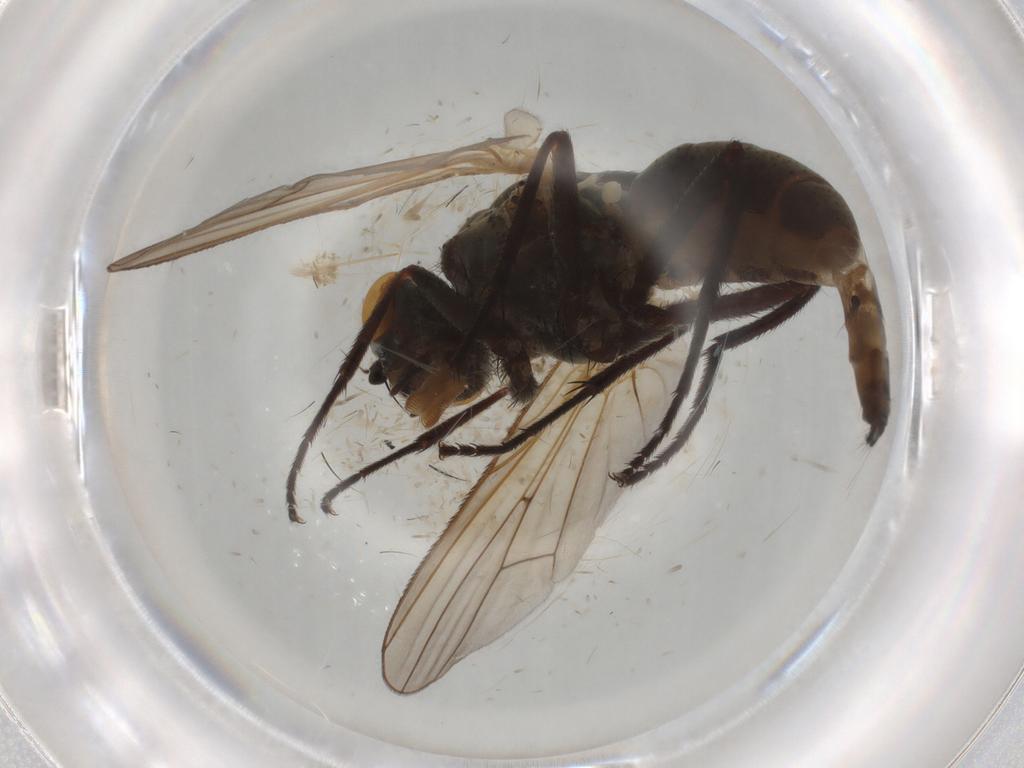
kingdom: Animalia
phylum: Arthropoda
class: Insecta
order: Diptera
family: Anthomyiidae
